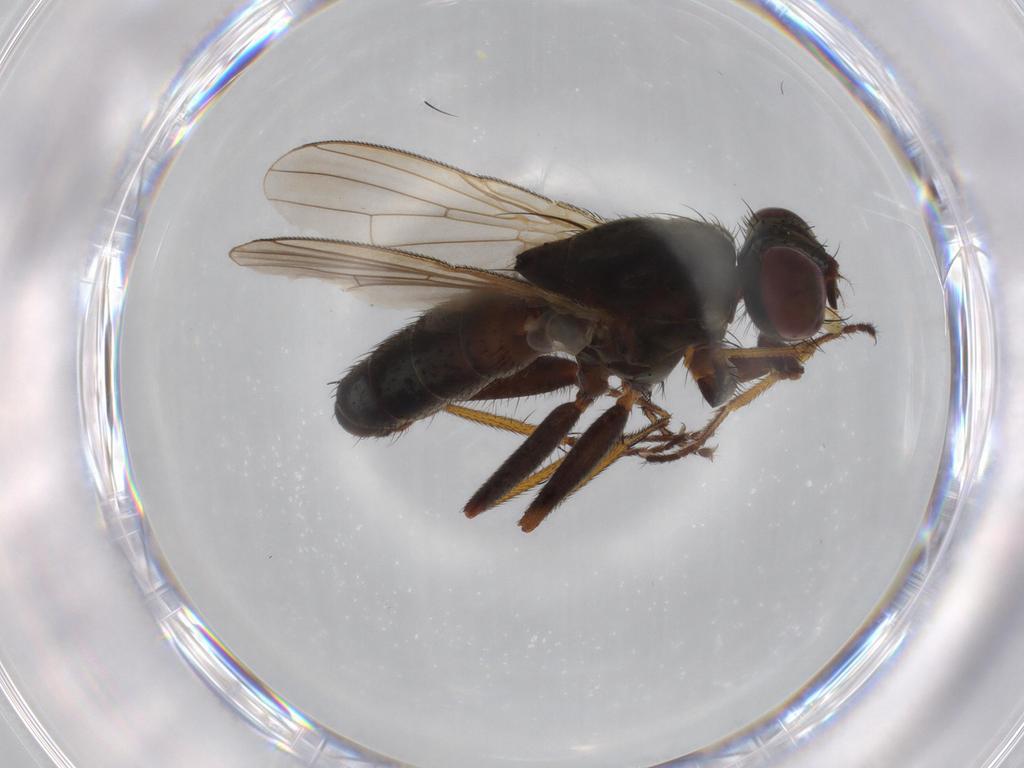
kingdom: Animalia
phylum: Arthropoda
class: Insecta
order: Diptera
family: Muscidae
